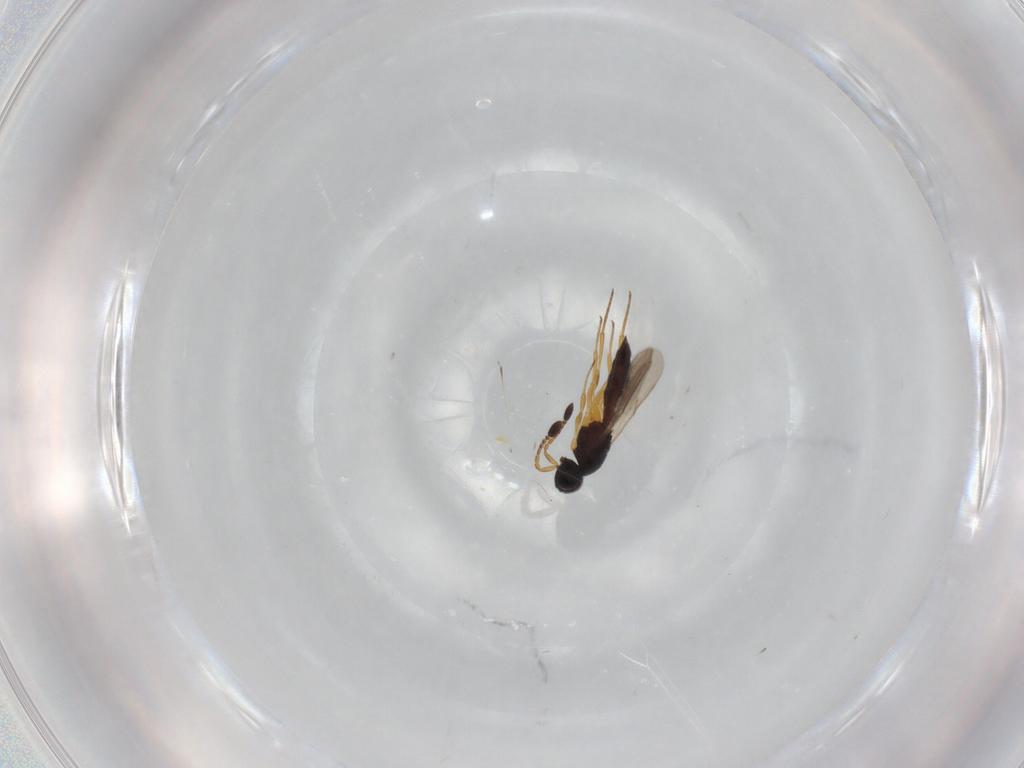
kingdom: Animalia
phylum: Arthropoda
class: Insecta
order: Hymenoptera
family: Scelionidae
